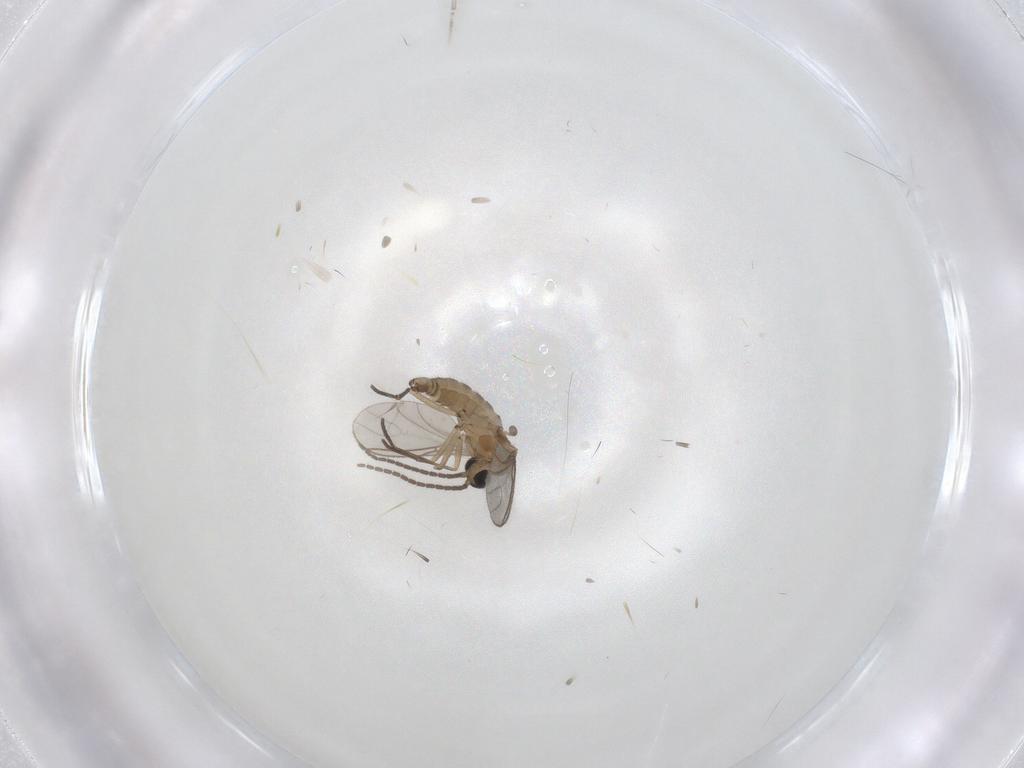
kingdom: Animalia
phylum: Arthropoda
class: Insecta
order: Diptera
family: Sciaridae
